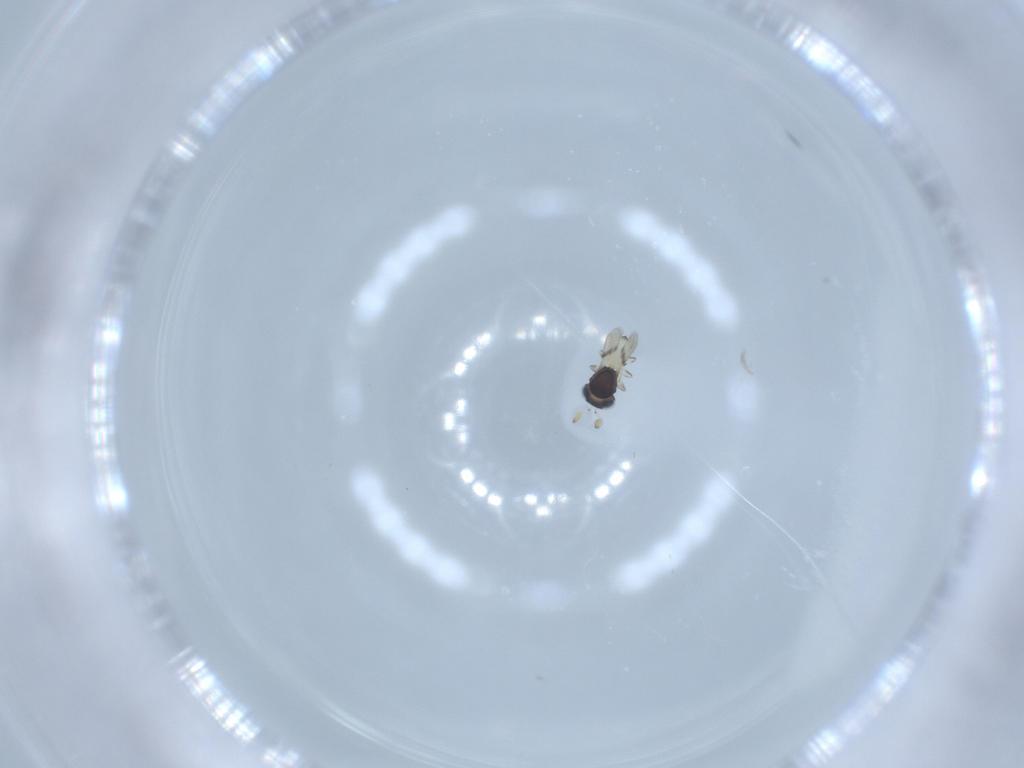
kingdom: Animalia
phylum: Arthropoda
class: Insecta
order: Hymenoptera
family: Scelionidae
